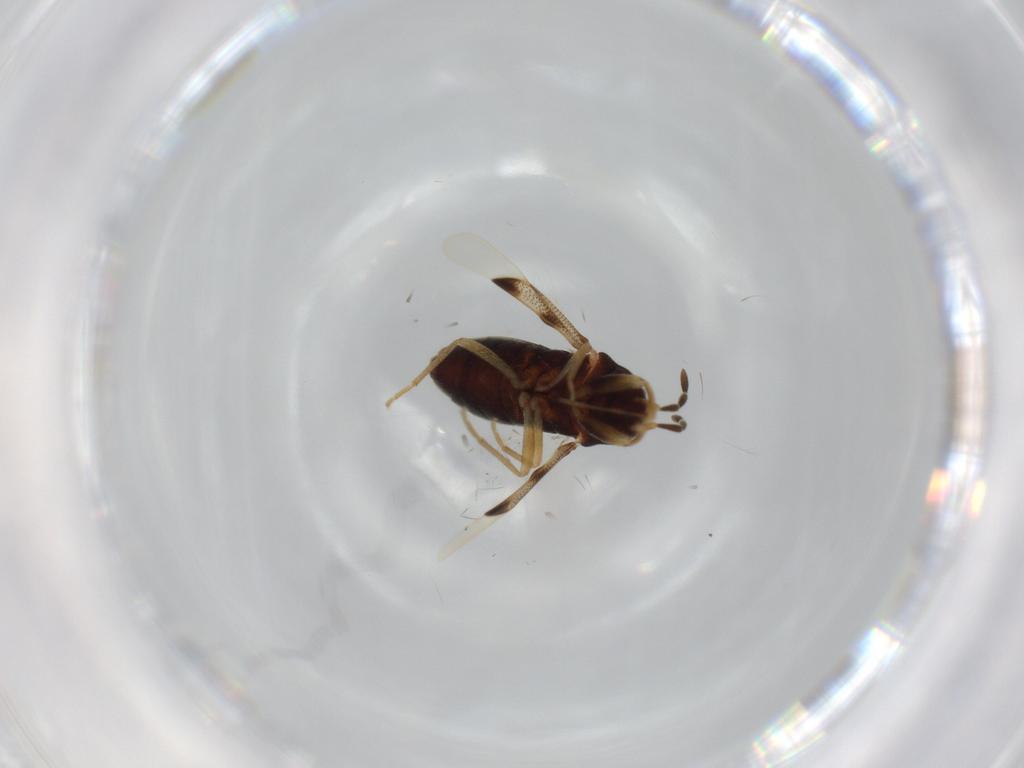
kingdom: Animalia
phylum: Arthropoda
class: Insecta
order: Hemiptera
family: Rhyparochromidae
